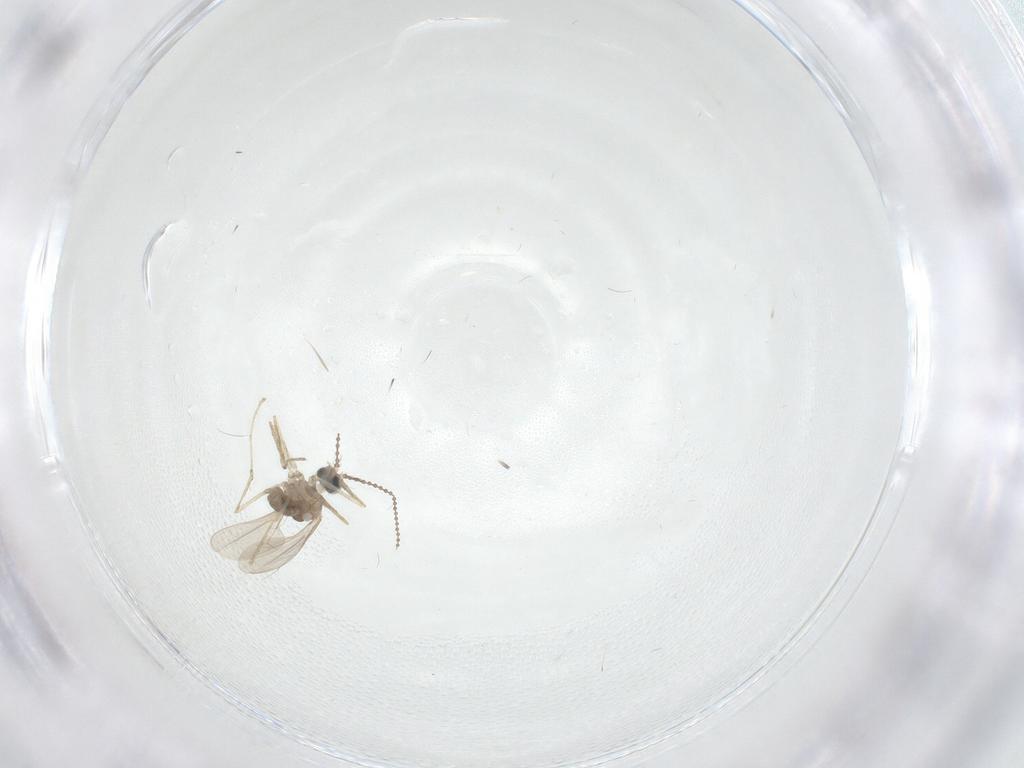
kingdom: Animalia
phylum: Arthropoda
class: Insecta
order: Diptera
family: Cecidomyiidae
